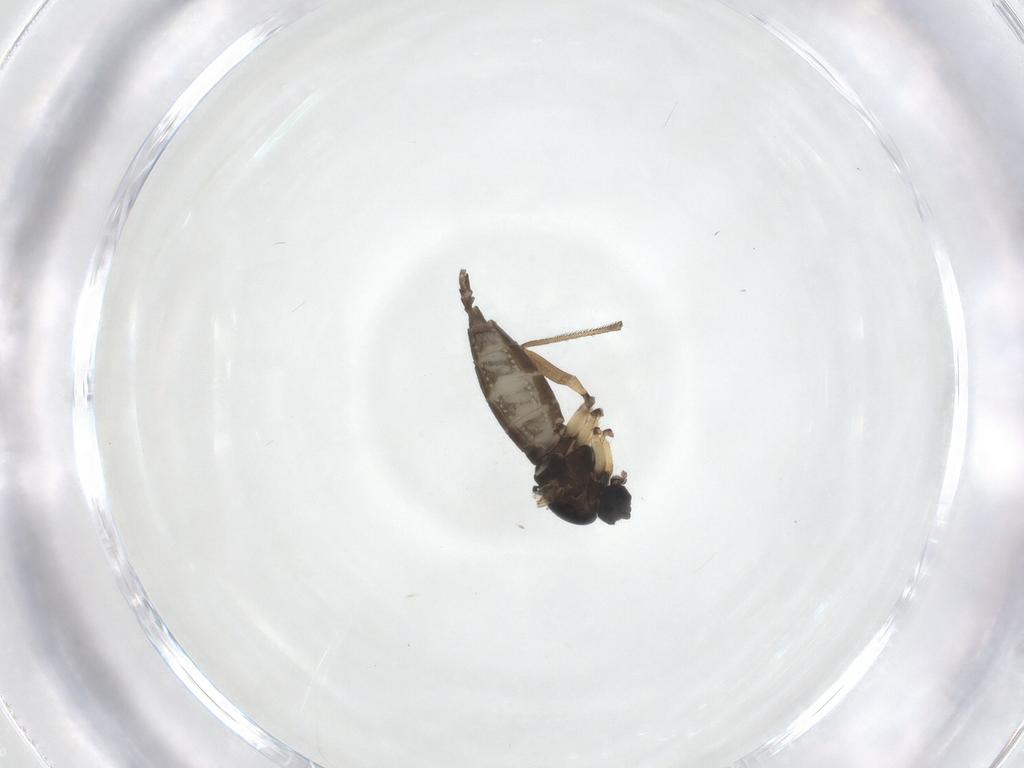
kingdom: Animalia
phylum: Arthropoda
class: Insecta
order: Diptera
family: Sciaridae
